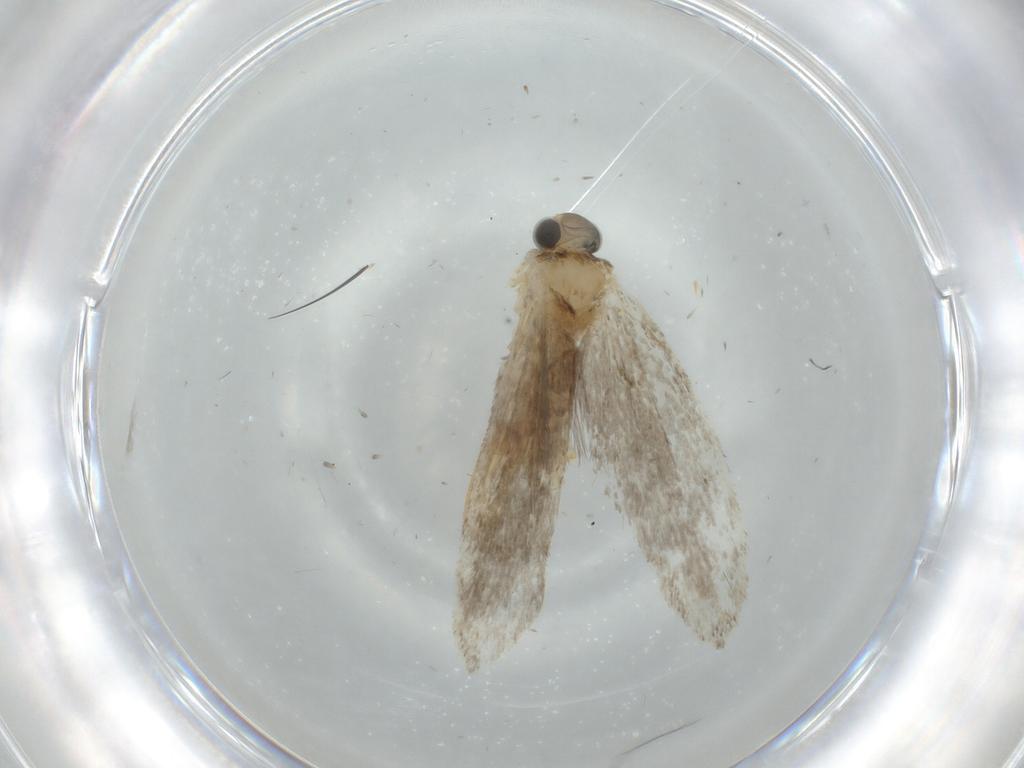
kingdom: Animalia
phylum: Arthropoda
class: Insecta
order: Lepidoptera
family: Tineidae
